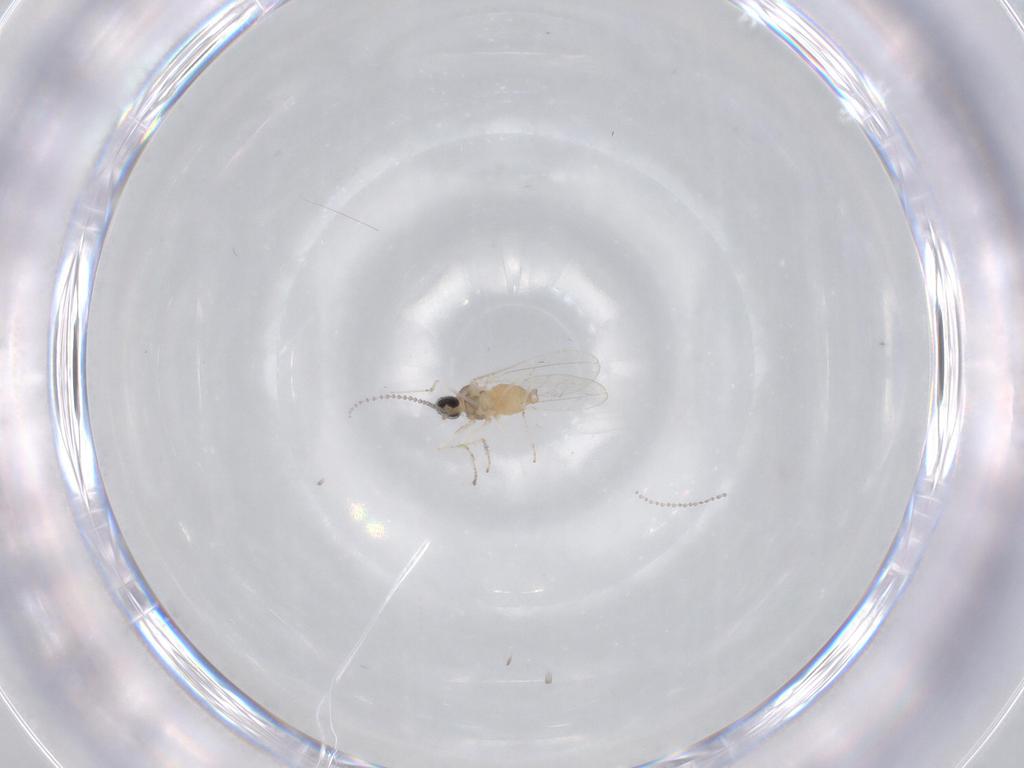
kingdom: Animalia
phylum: Arthropoda
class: Insecta
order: Diptera
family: Cecidomyiidae
